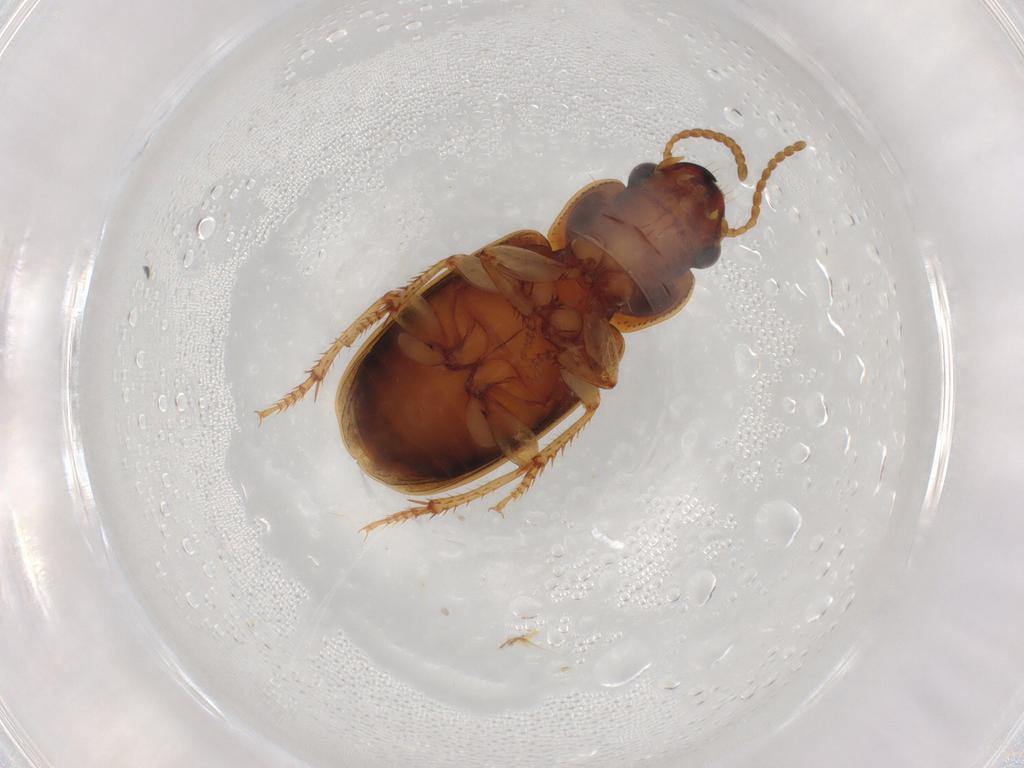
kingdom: Animalia
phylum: Arthropoda
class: Insecta
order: Coleoptera
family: Carabidae
